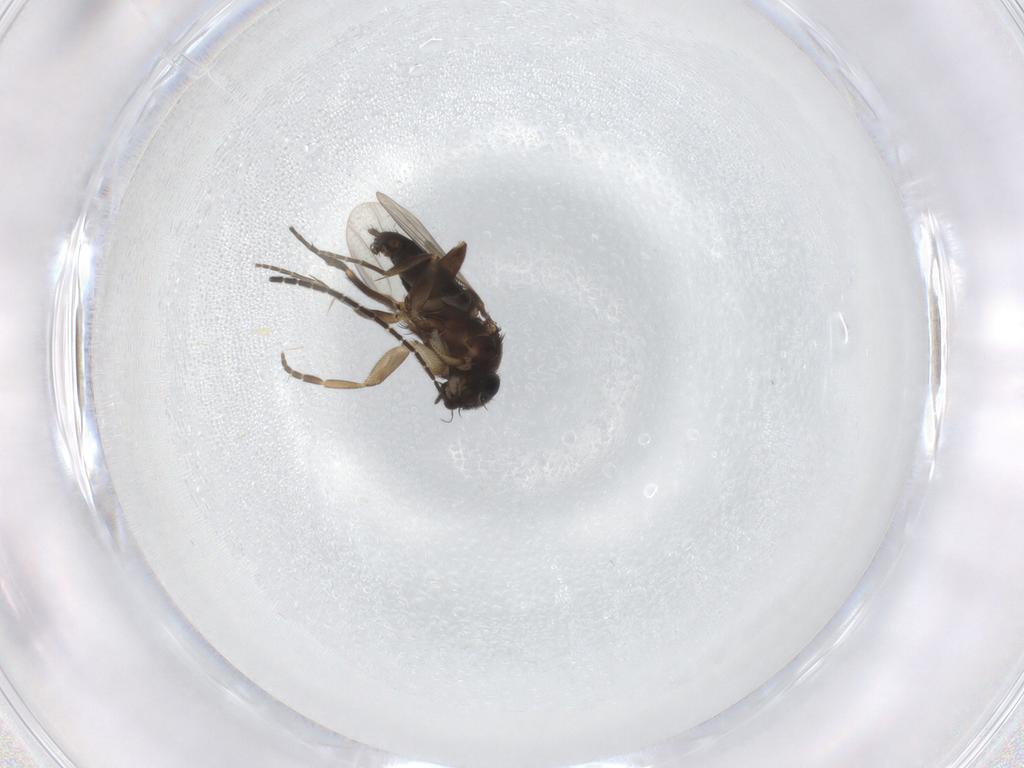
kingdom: Animalia
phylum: Arthropoda
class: Insecta
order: Diptera
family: Phoridae
